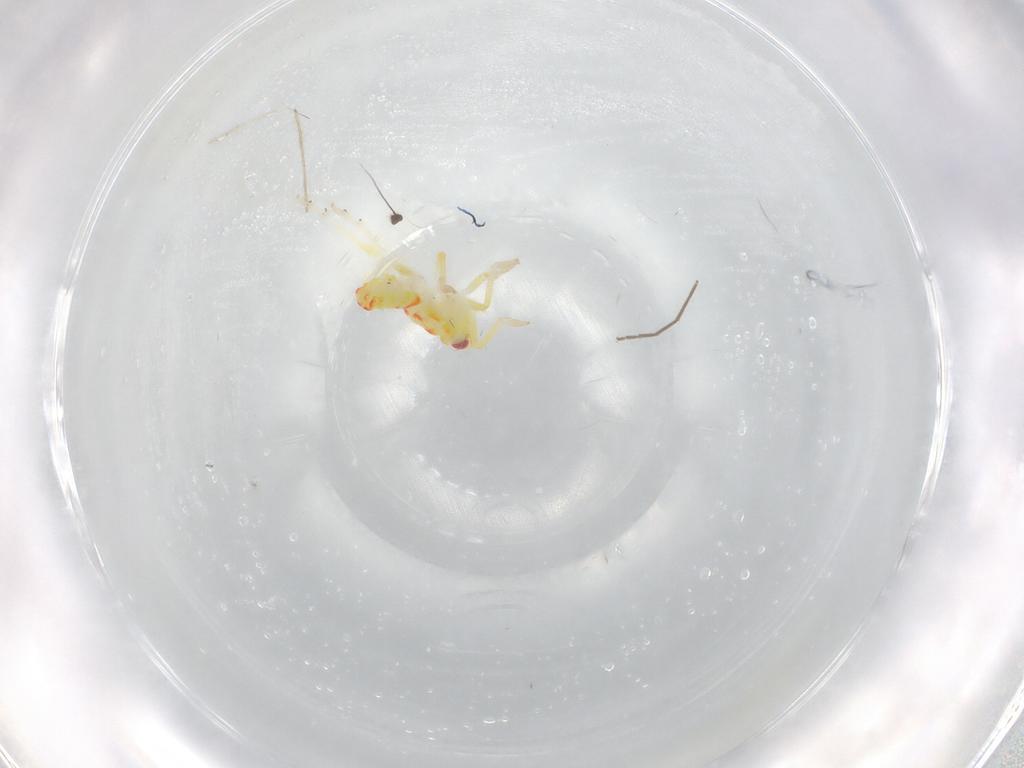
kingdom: Animalia
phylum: Arthropoda
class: Insecta
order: Hemiptera
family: Tropiduchidae
